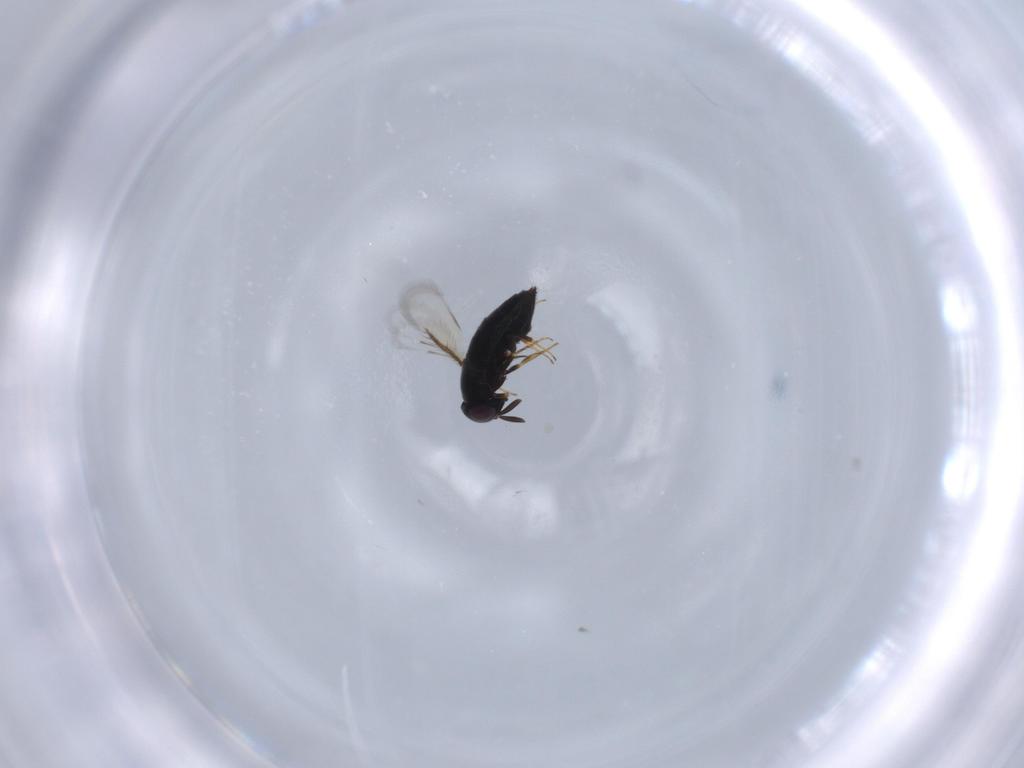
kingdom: Animalia
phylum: Arthropoda
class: Insecta
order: Hymenoptera
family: Signiphoridae
